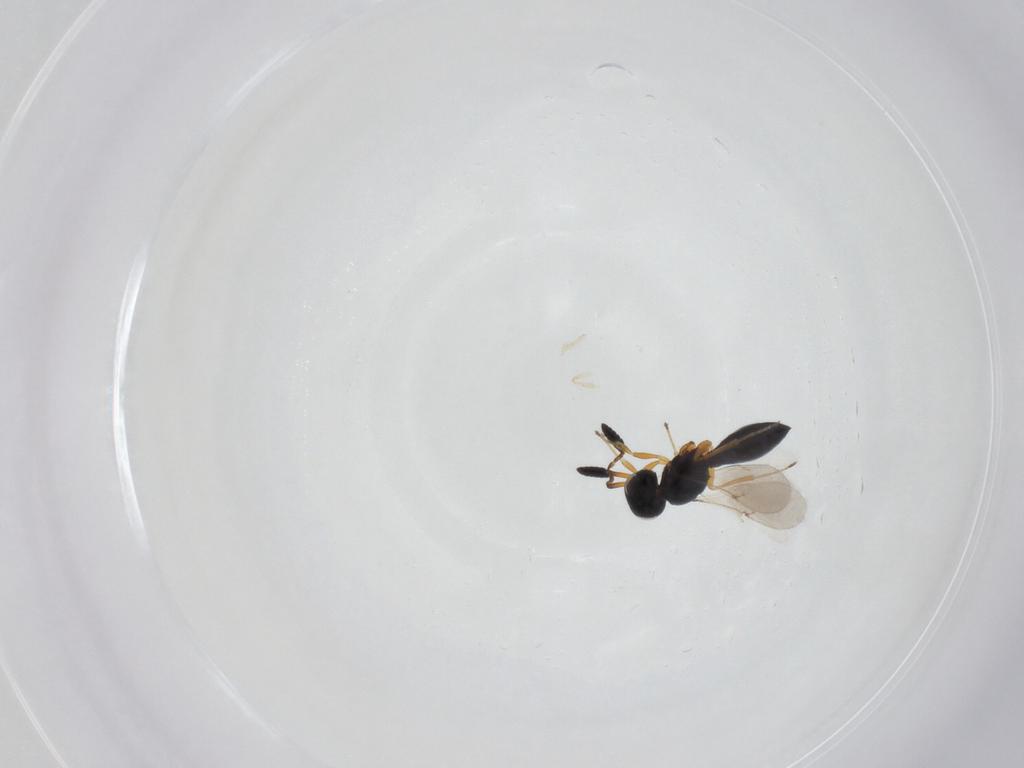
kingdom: Animalia
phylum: Arthropoda
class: Insecta
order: Hymenoptera
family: Scelionidae
